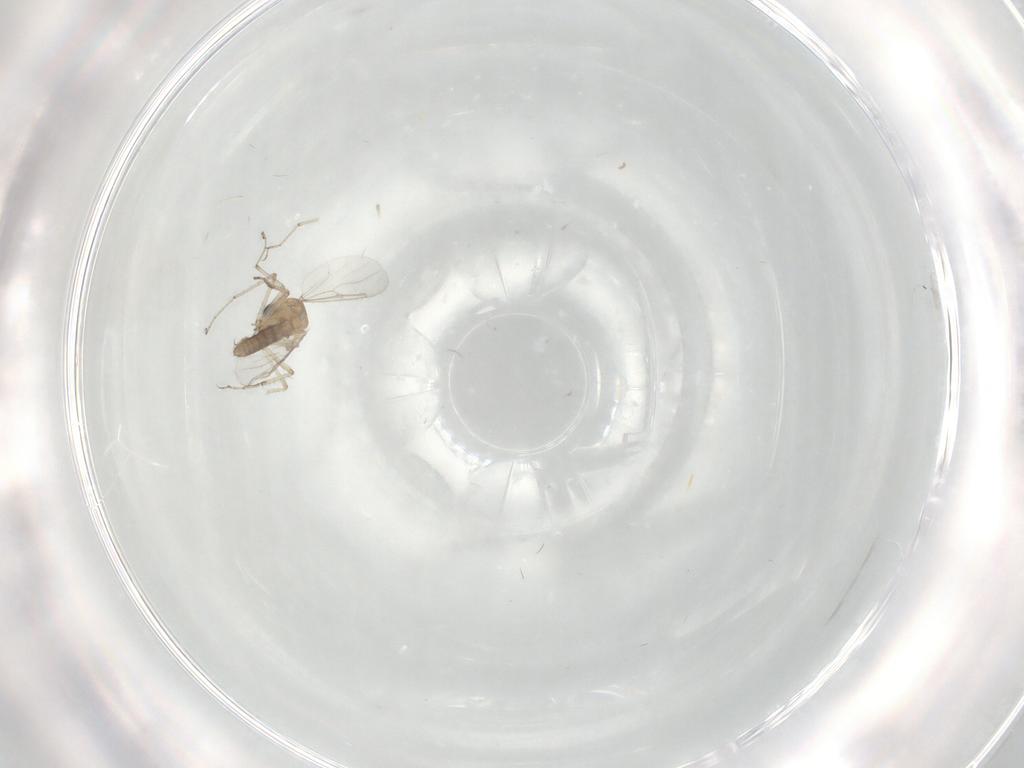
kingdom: Animalia
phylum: Arthropoda
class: Insecta
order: Diptera
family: Ceratopogonidae
